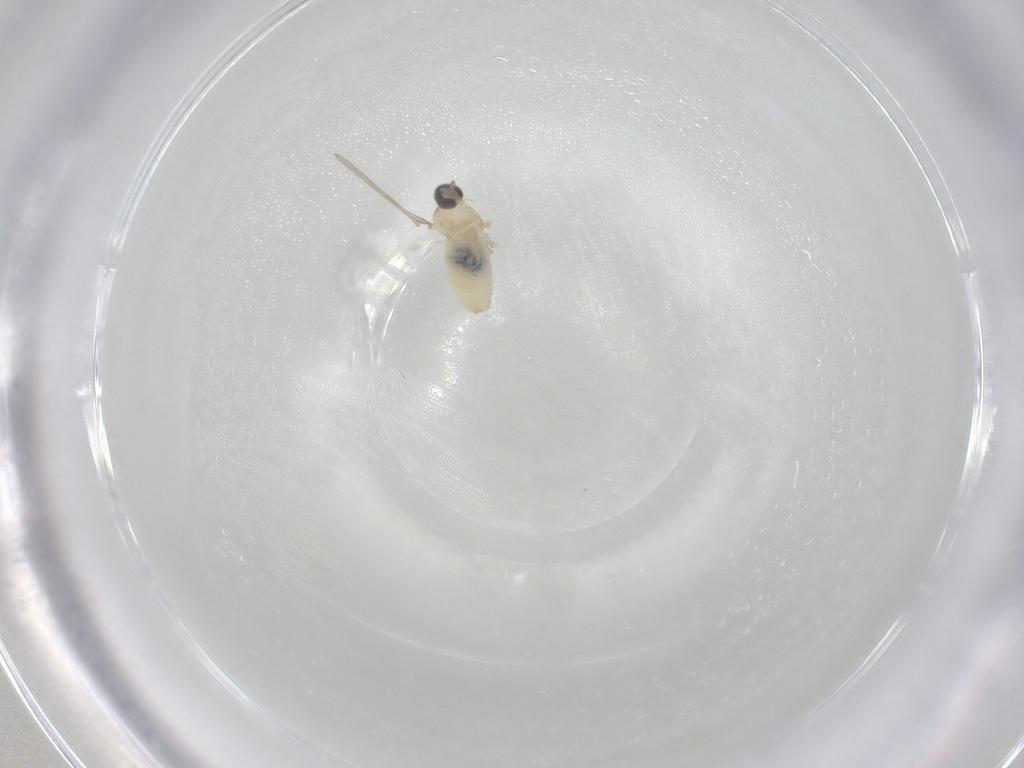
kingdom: Animalia
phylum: Arthropoda
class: Insecta
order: Diptera
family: Cecidomyiidae
